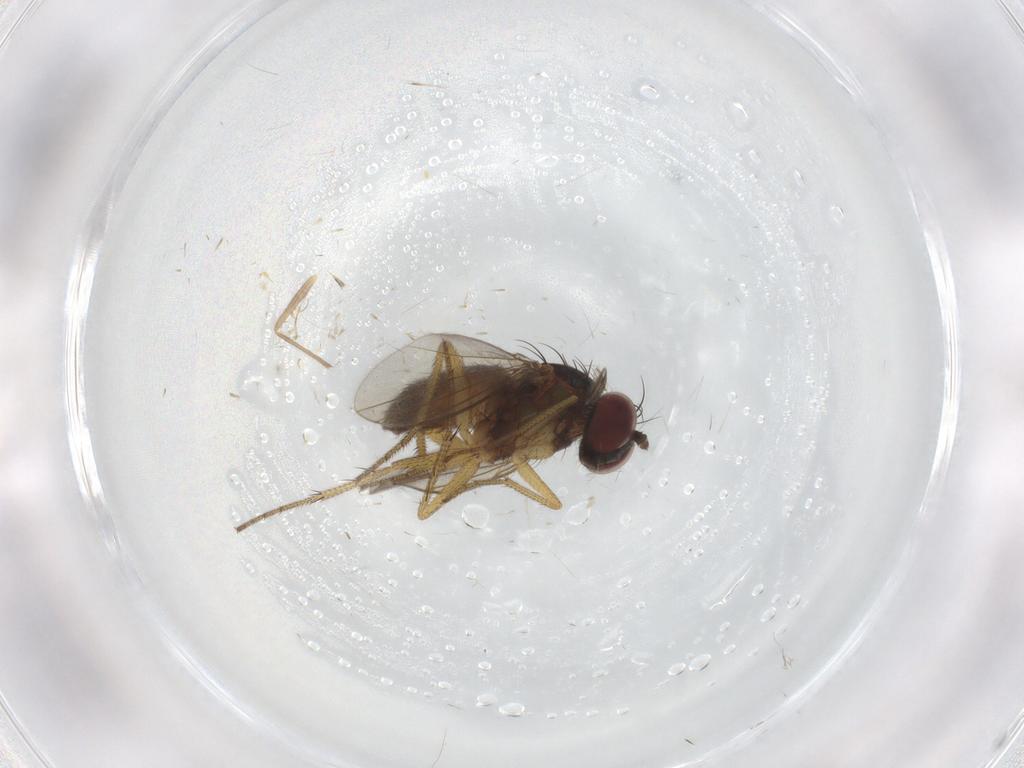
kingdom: Animalia
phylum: Arthropoda
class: Insecta
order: Diptera
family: Dolichopodidae
